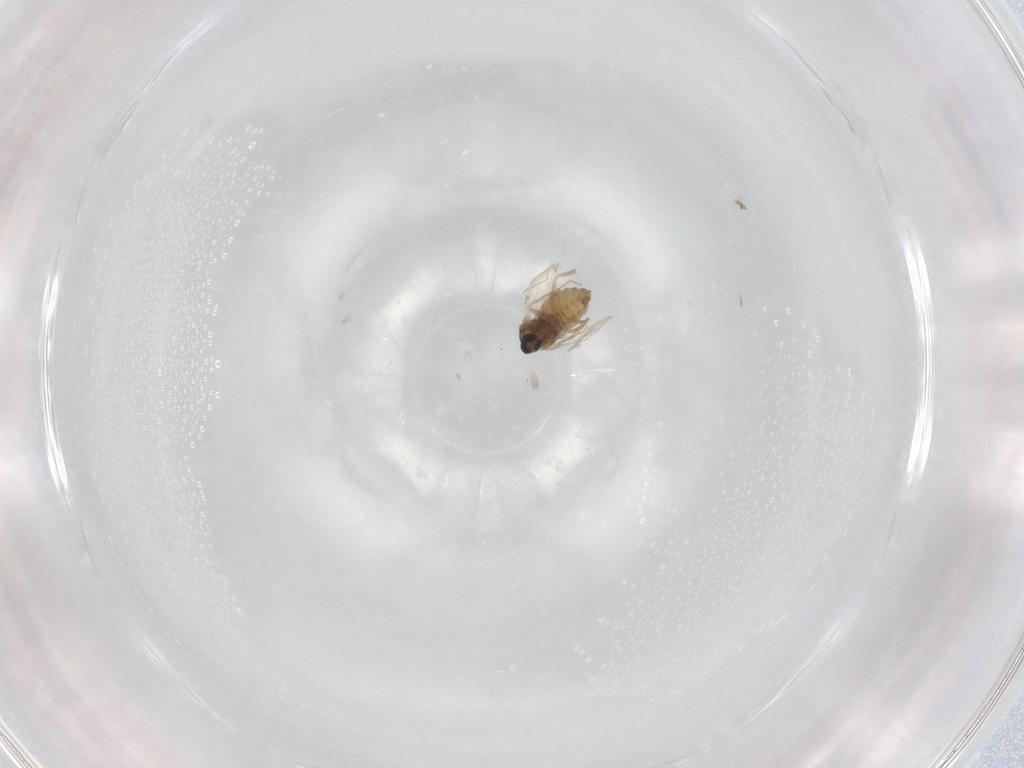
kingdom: Animalia
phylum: Arthropoda
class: Insecta
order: Diptera
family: Cecidomyiidae
